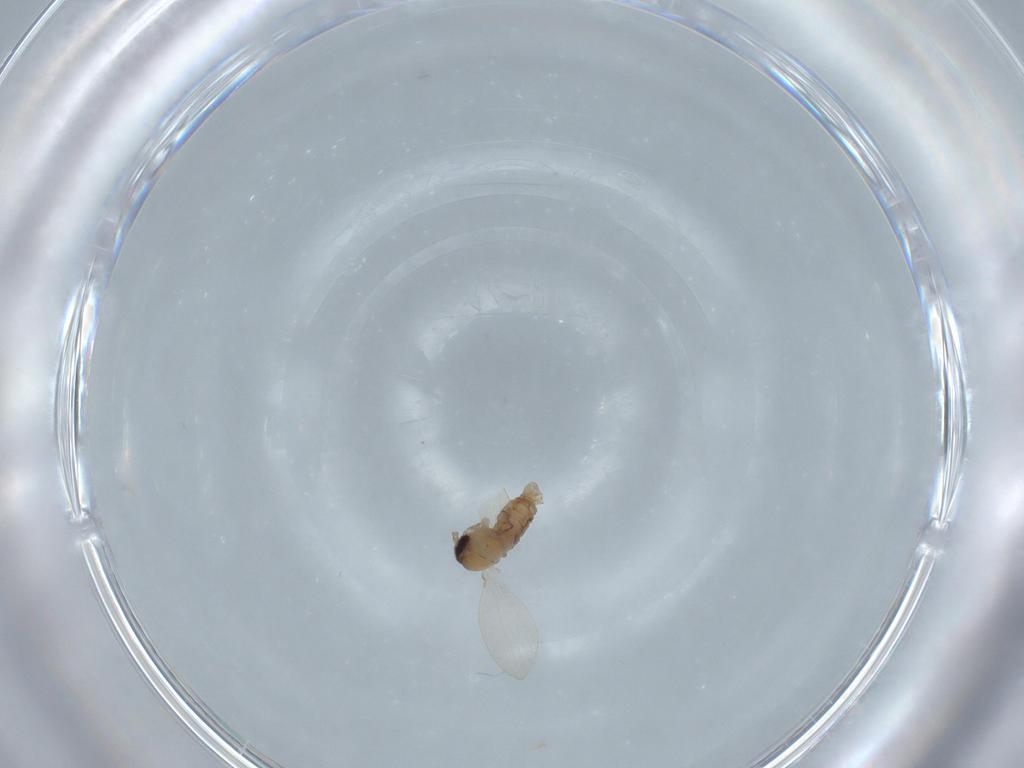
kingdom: Animalia
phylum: Arthropoda
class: Insecta
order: Diptera
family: Psychodidae
